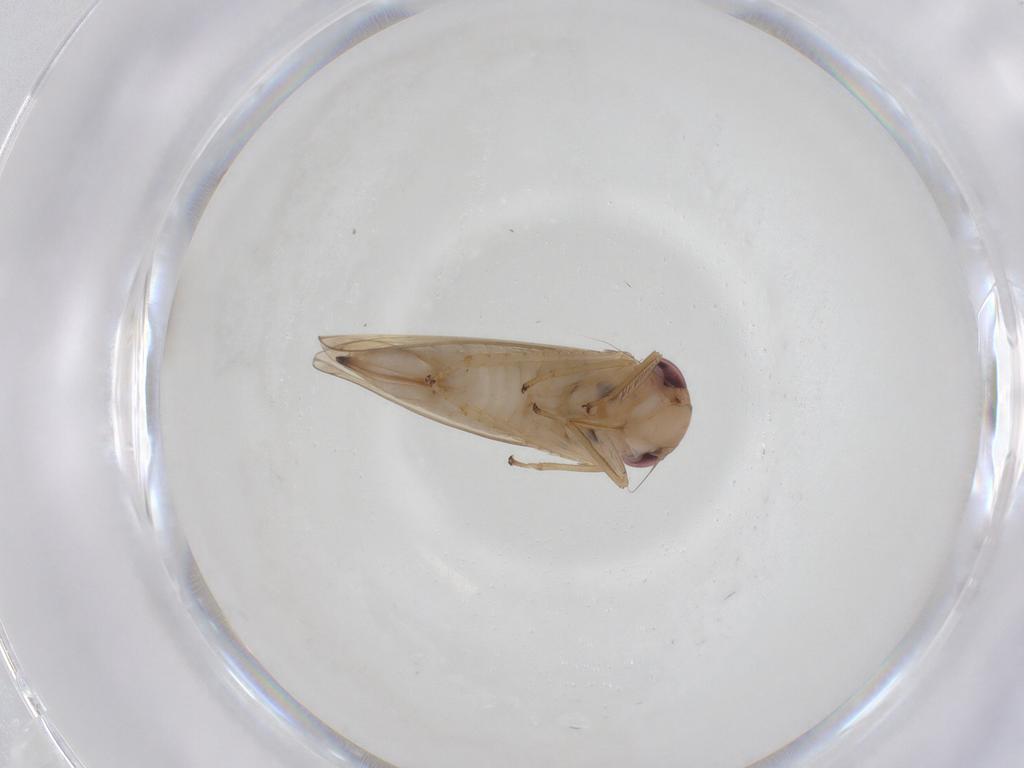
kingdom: Animalia
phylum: Arthropoda
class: Insecta
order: Hemiptera
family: Cicadellidae
